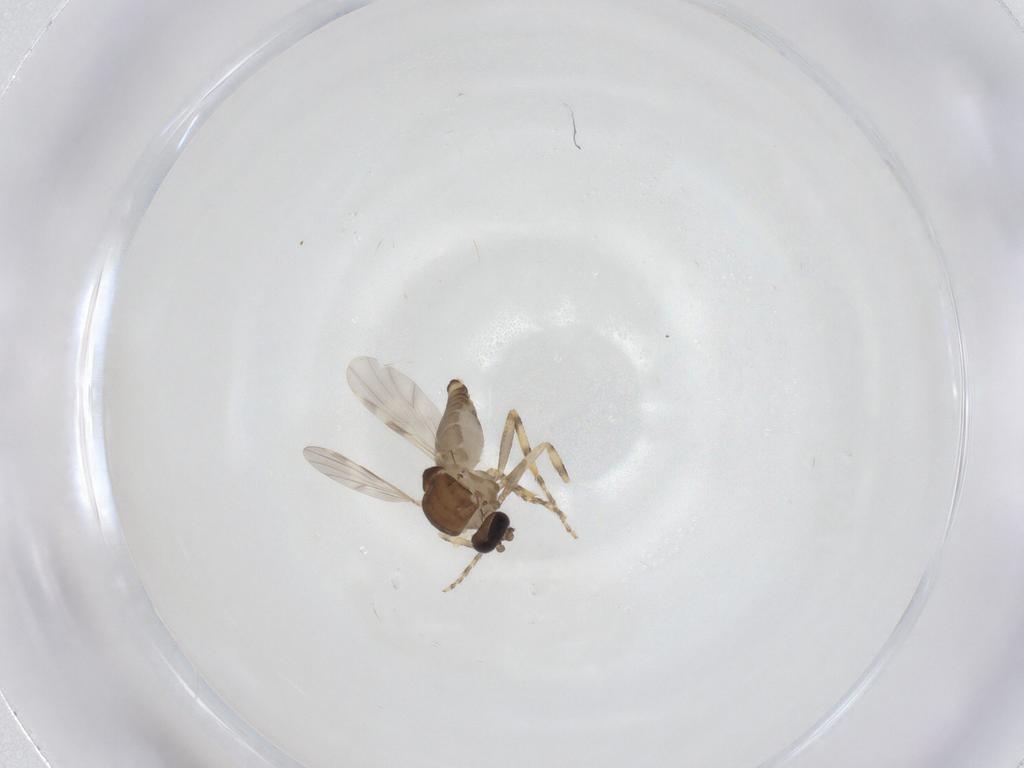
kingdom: Animalia
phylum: Arthropoda
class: Insecta
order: Diptera
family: Ceratopogonidae
